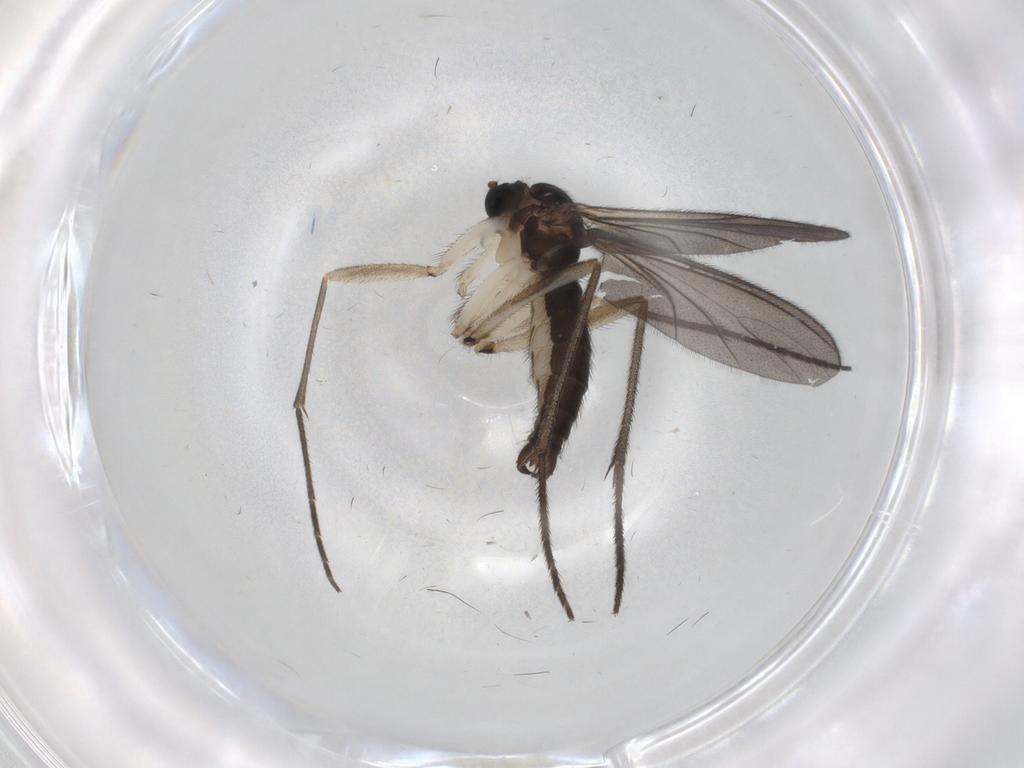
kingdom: Animalia
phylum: Arthropoda
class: Insecta
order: Diptera
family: Sciaridae
